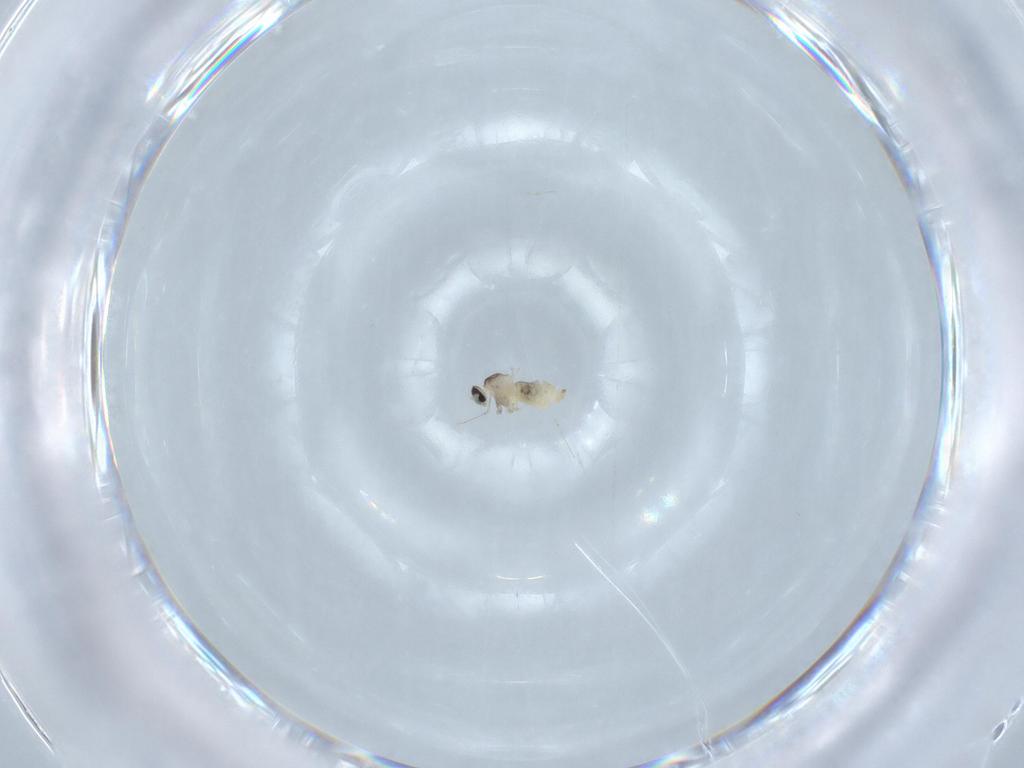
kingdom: Animalia
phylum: Arthropoda
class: Insecta
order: Diptera
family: Cecidomyiidae
